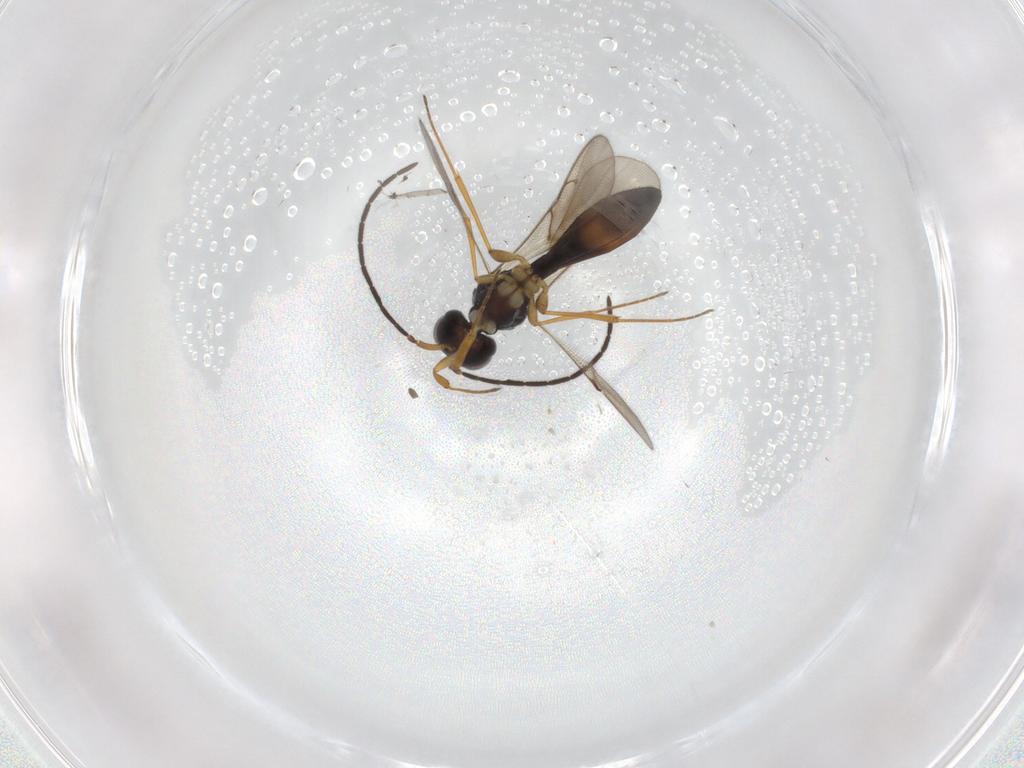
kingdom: Animalia
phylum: Arthropoda
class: Insecta
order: Hymenoptera
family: Scelionidae
